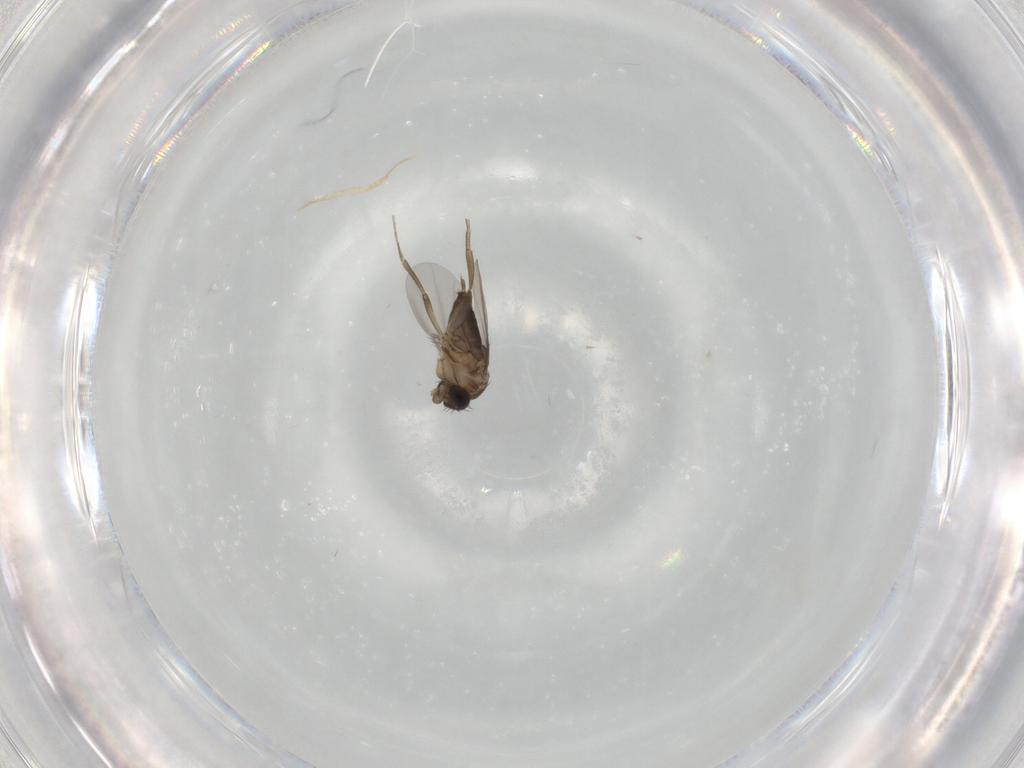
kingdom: Animalia
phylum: Arthropoda
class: Insecta
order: Diptera
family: Phoridae
